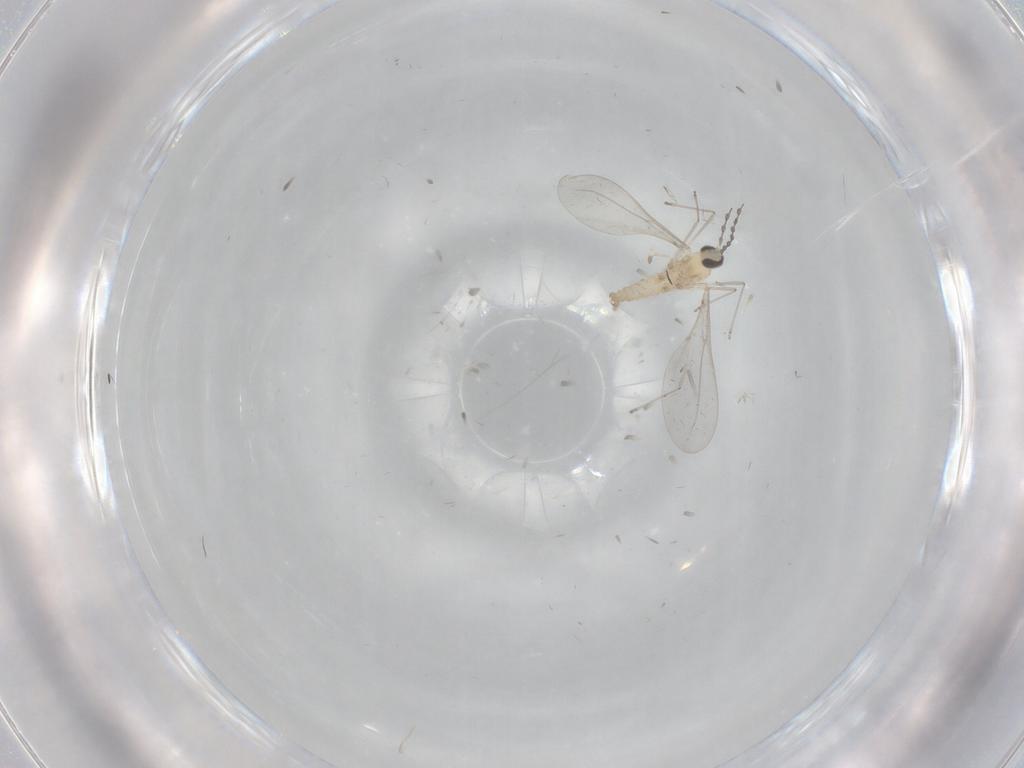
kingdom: Animalia
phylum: Arthropoda
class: Insecta
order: Diptera
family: Cecidomyiidae
